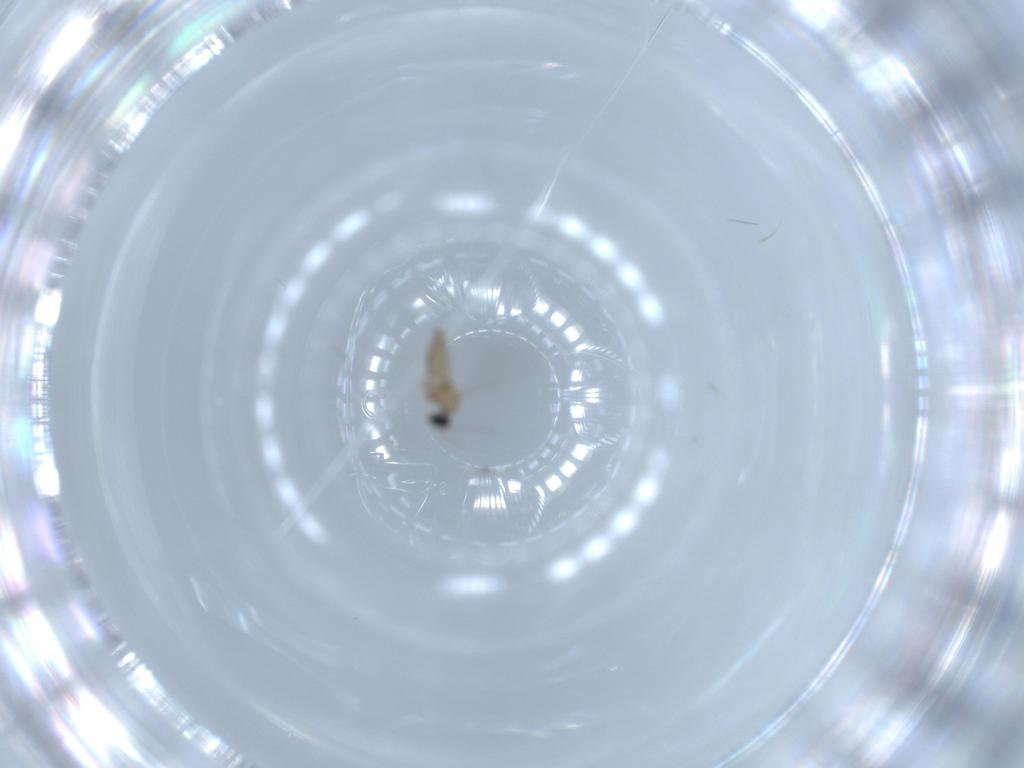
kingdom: Animalia
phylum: Arthropoda
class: Insecta
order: Diptera
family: Cecidomyiidae
